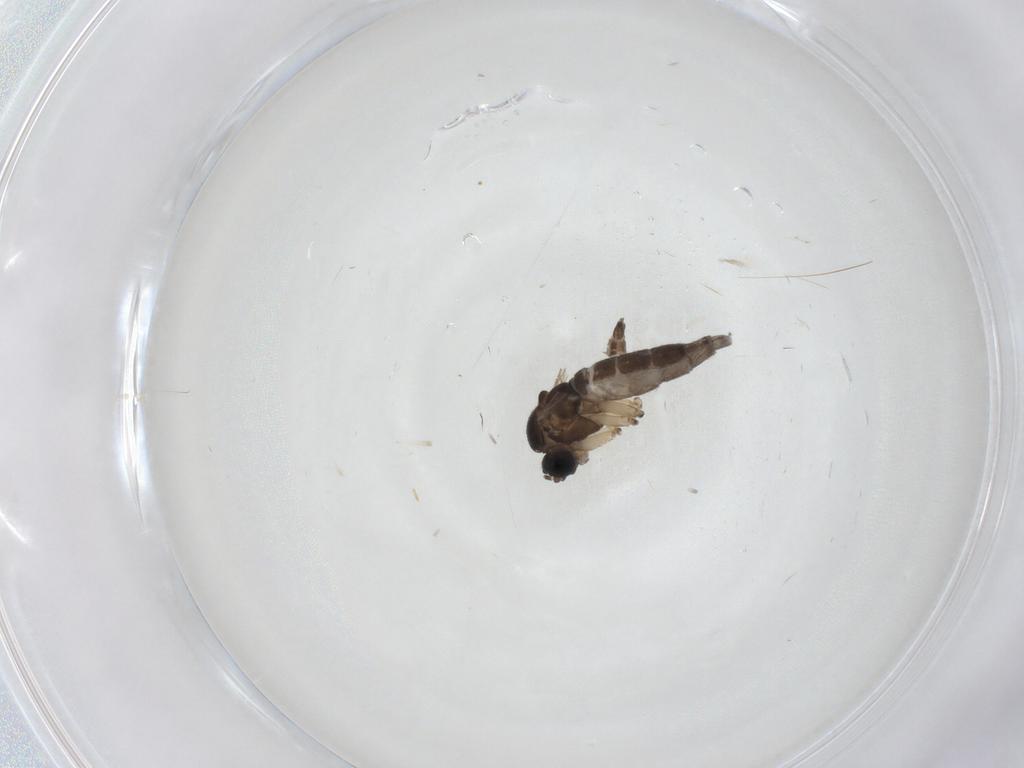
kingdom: Animalia
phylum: Arthropoda
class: Insecta
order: Diptera
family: Sciaridae
